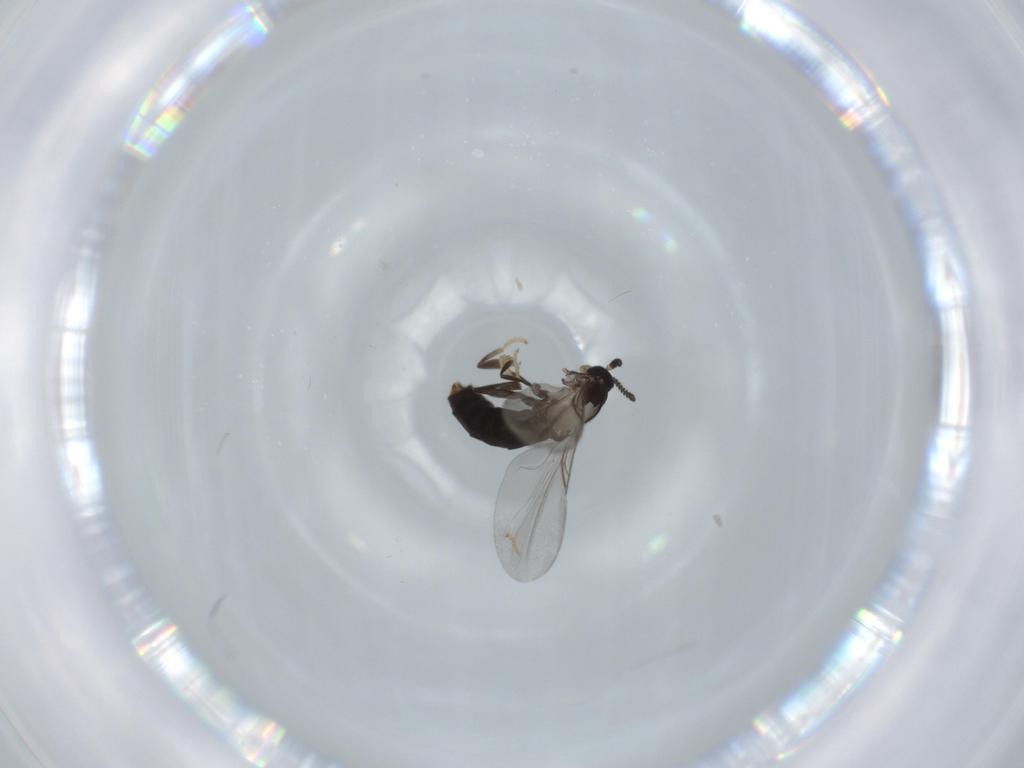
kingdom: Animalia
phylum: Arthropoda
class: Insecta
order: Diptera
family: Scatopsidae
